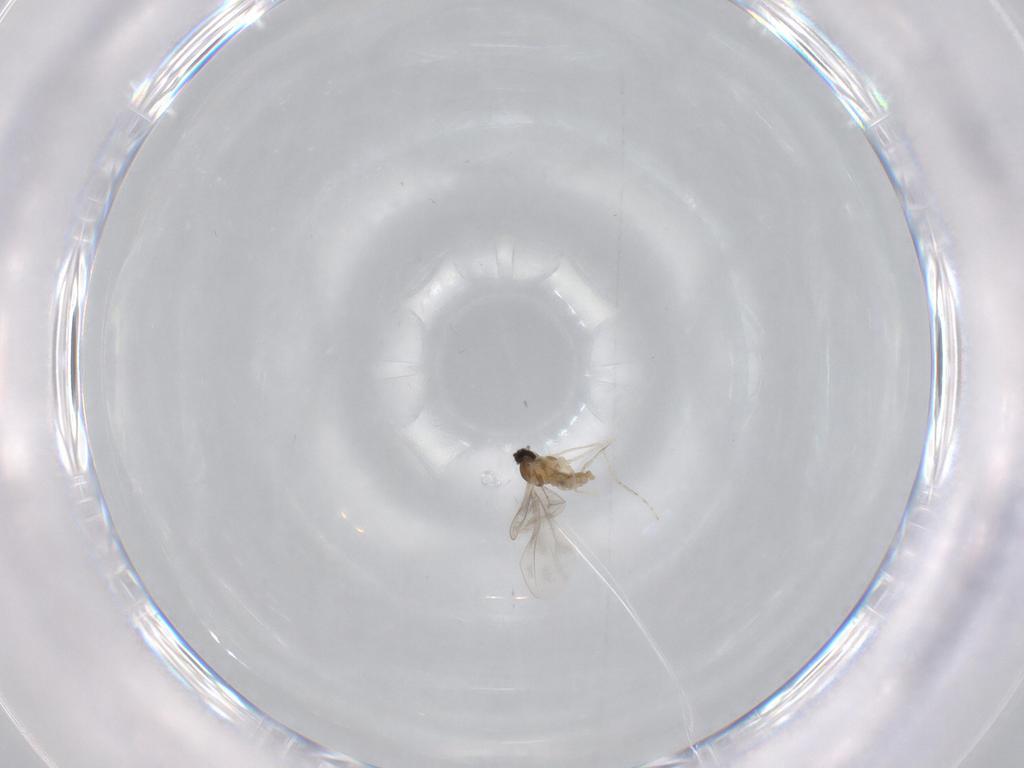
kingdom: Animalia
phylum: Arthropoda
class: Insecta
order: Diptera
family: Cecidomyiidae
